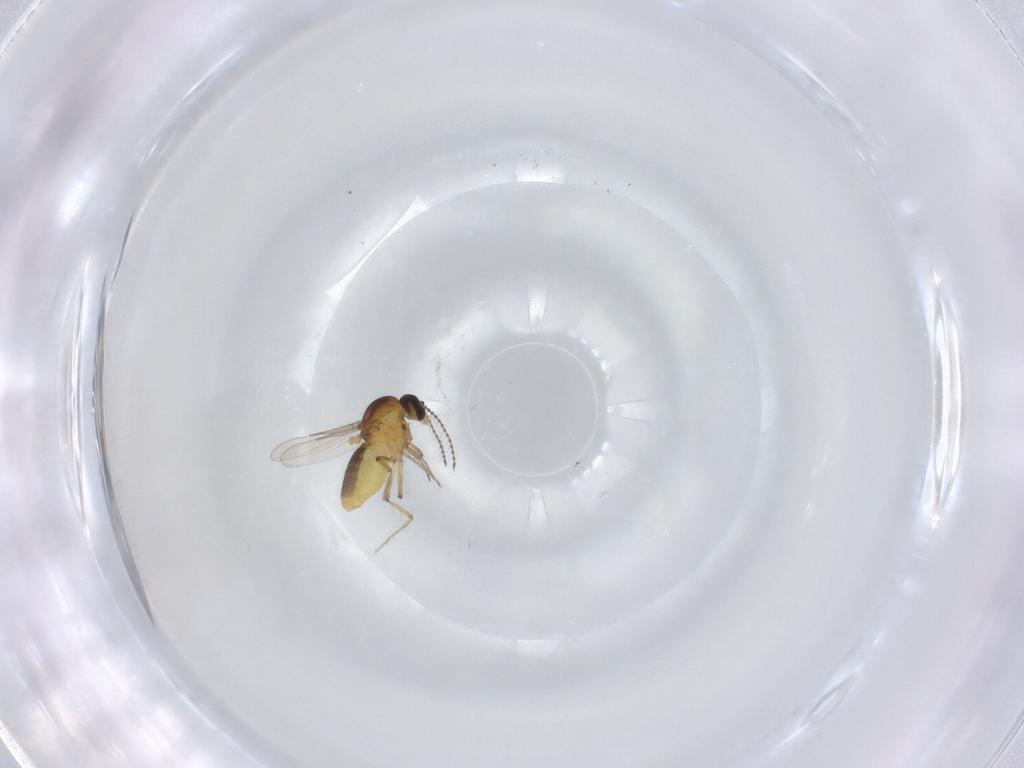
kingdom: Animalia
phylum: Arthropoda
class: Insecta
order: Diptera
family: Ceratopogonidae
